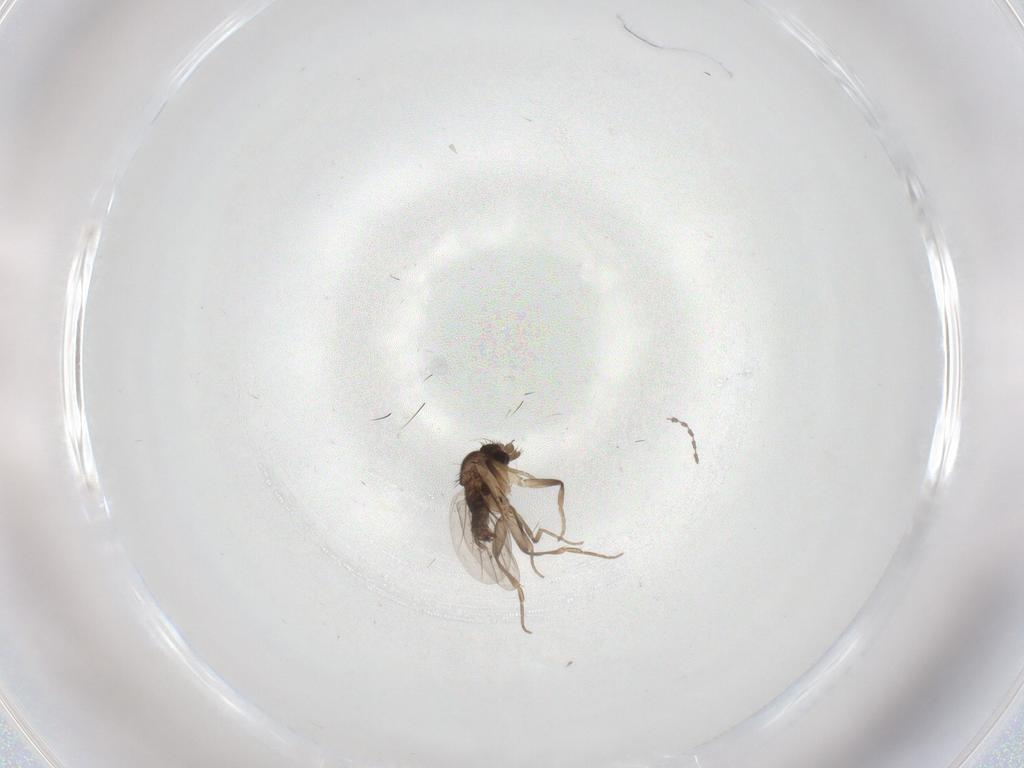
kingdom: Animalia
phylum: Arthropoda
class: Insecta
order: Diptera
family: Cecidomyiidae
